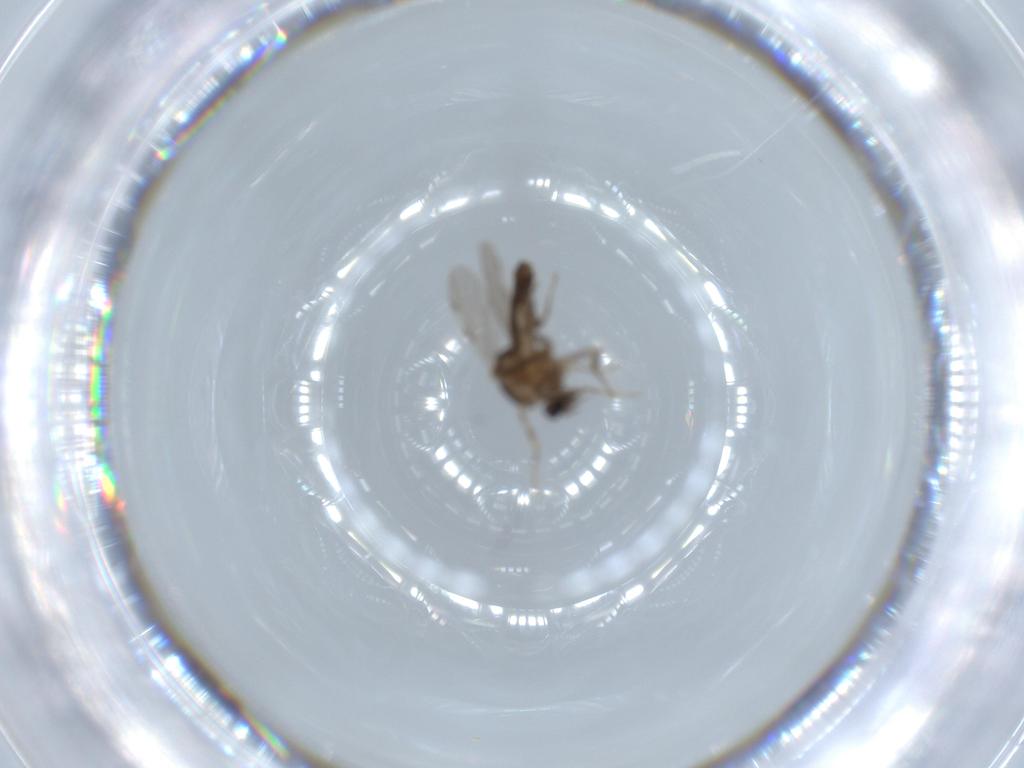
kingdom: Animalia
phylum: Arthropoda
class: Insecta
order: Diptera
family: Ceratopogonidae
